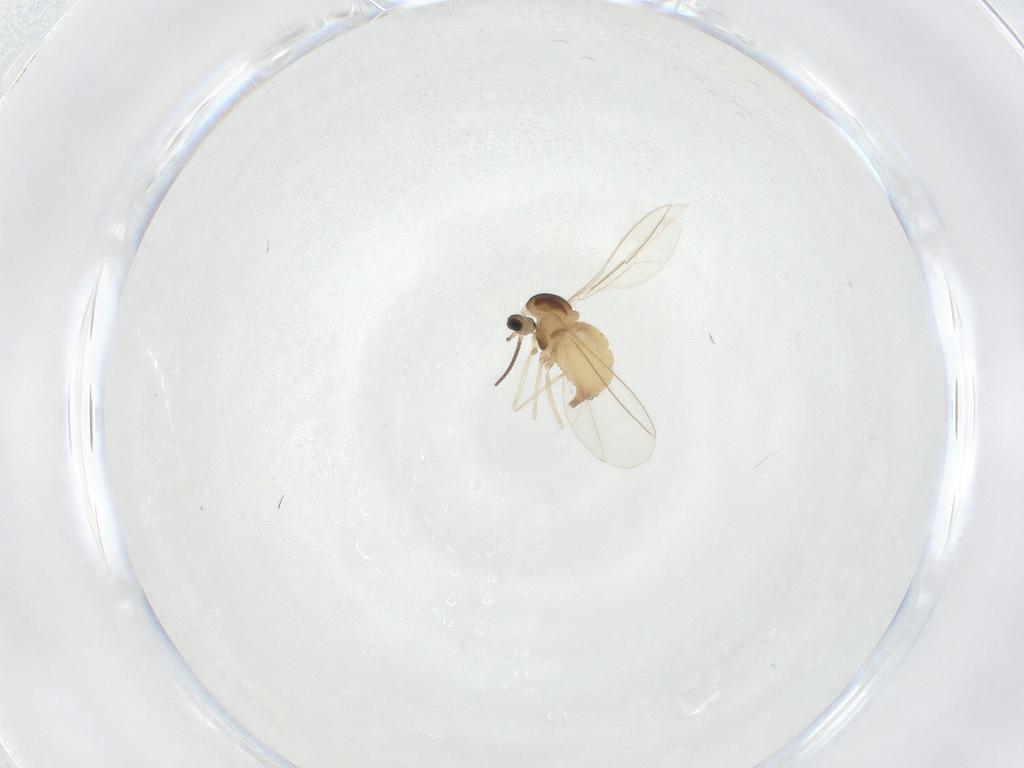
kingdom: Animalia
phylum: Arthropoda
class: Insecta
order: Diptera
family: Cecidomyiidae
